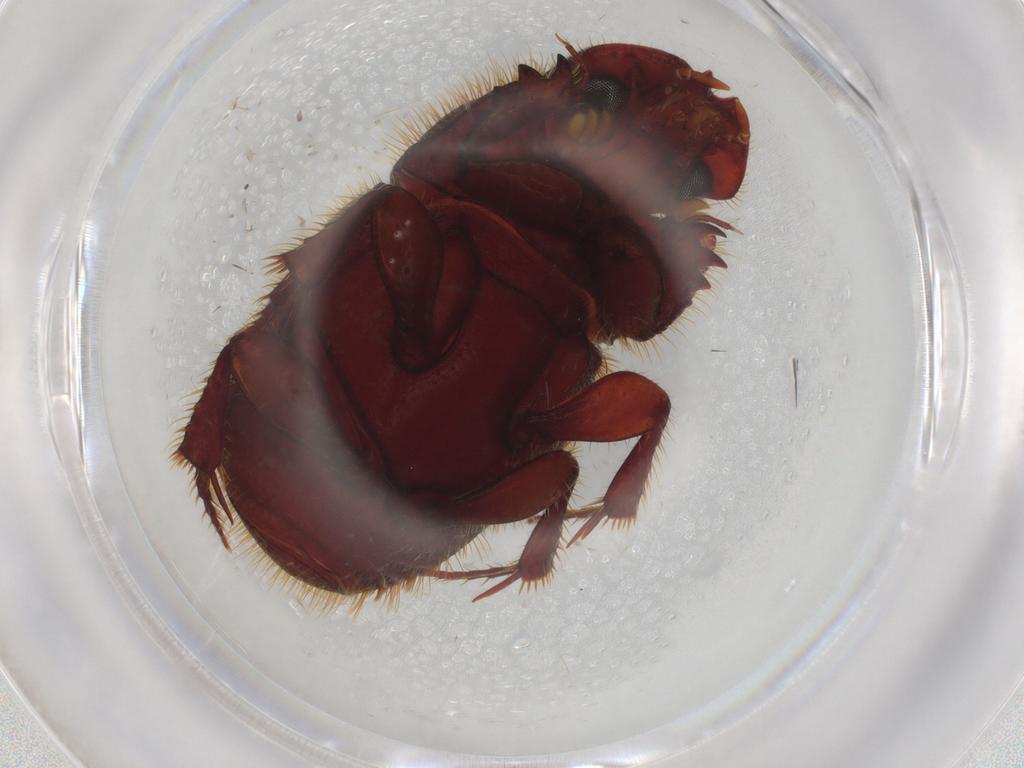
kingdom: Animalia
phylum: Arthropoda
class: Insecta
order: Coleoptera
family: Scarabaeidae
